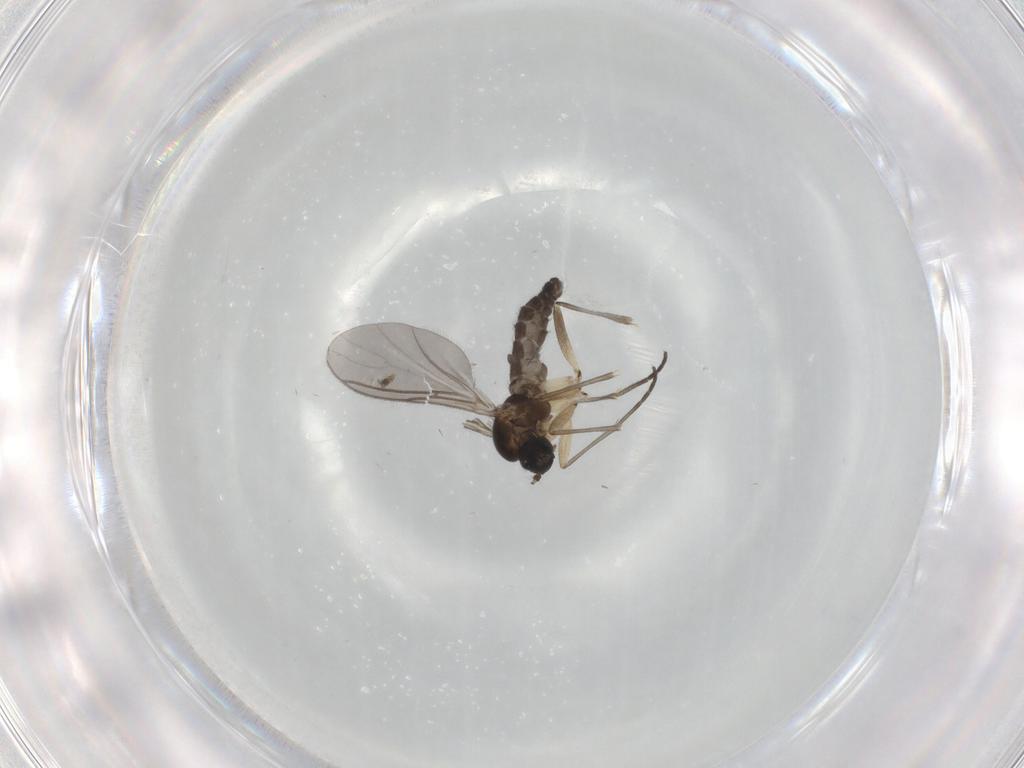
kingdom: Animalia
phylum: Arthropoda
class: Insecta
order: Diptera
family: Sciaridae
